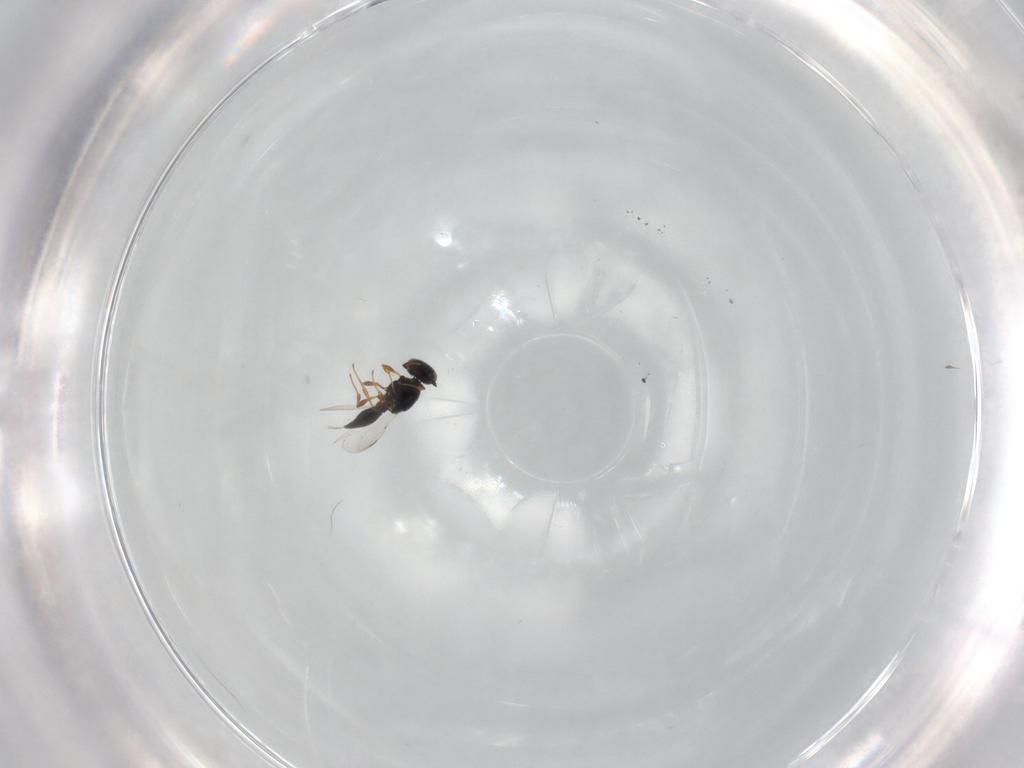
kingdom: Animalia
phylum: Arthropoda
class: Insecta
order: Hymenoptera
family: Platygastridae
